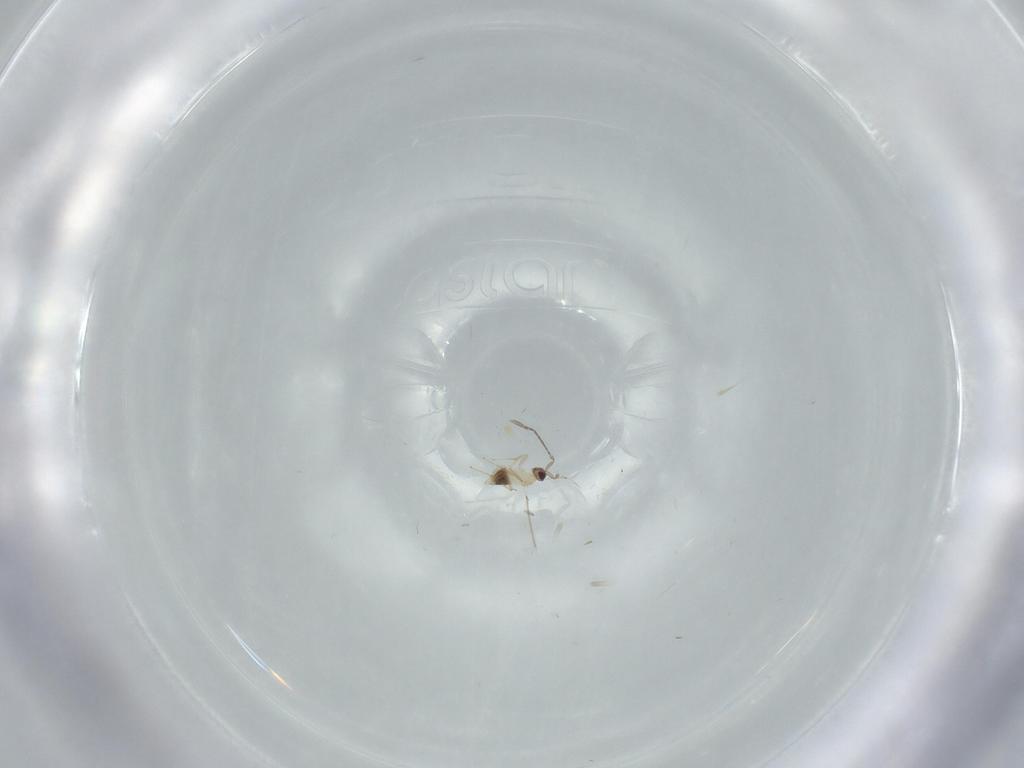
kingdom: Animalia
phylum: Arthropoda
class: Insecta
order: Hymenoptera
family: Mymaridae
